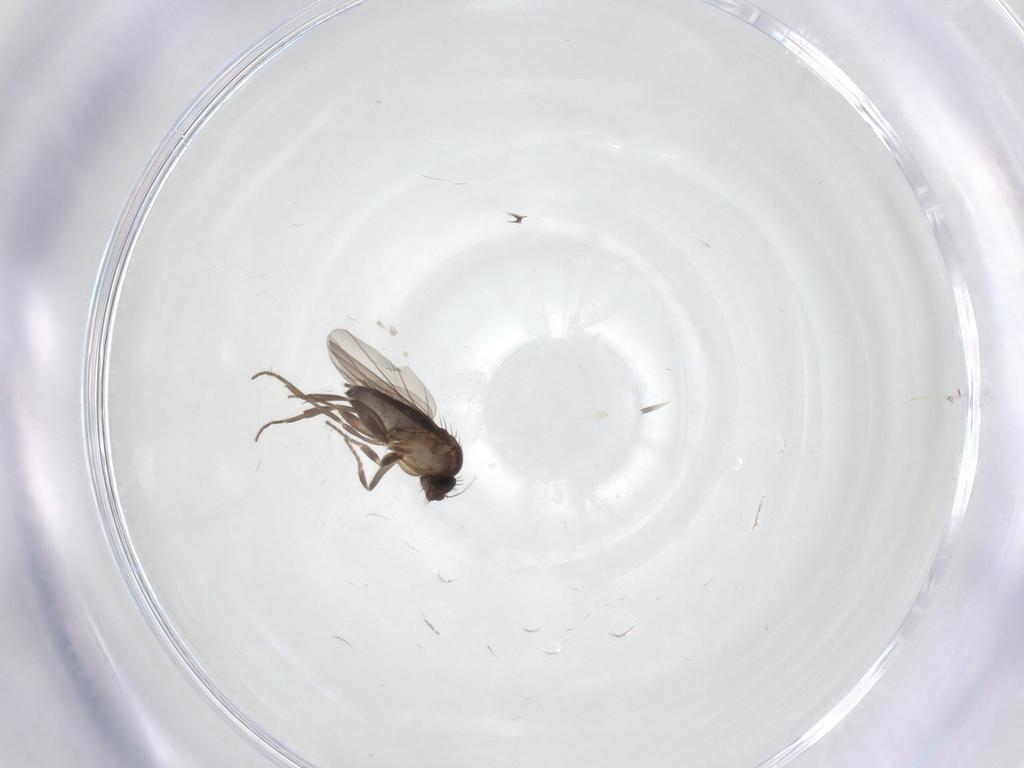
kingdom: Animalia
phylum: Arthropoda
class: Insecta
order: Diptera
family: Phoridae
